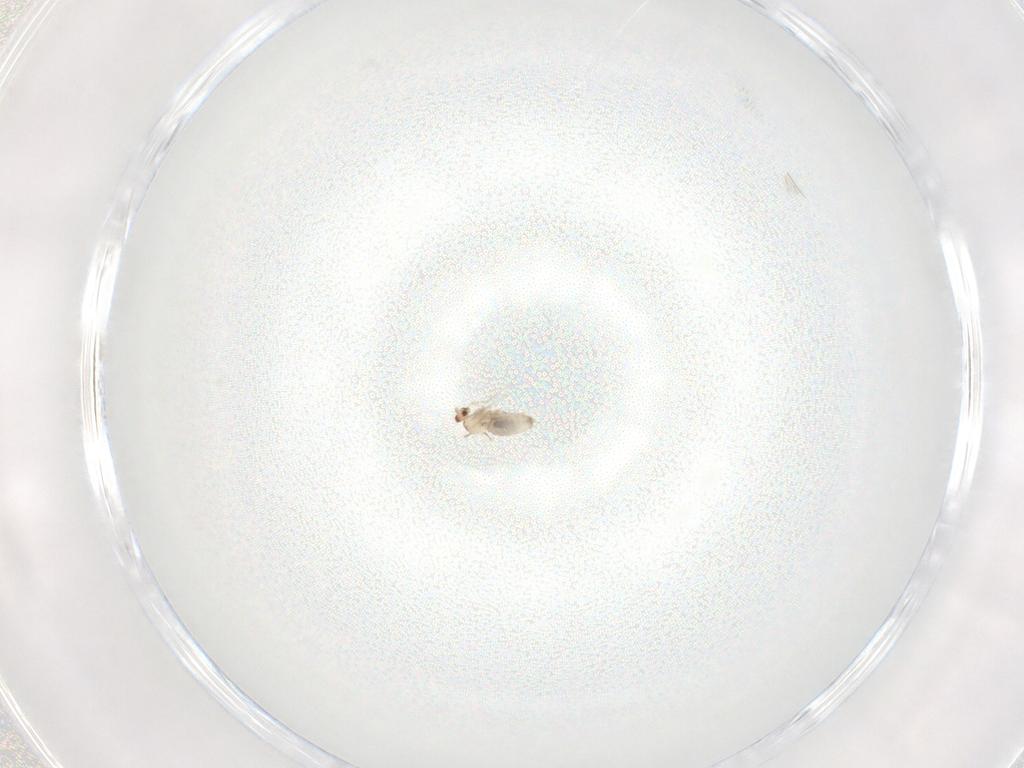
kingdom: Animalia
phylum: Arthropoda
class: Insecta
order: Diptera
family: Cecidomyiidae
